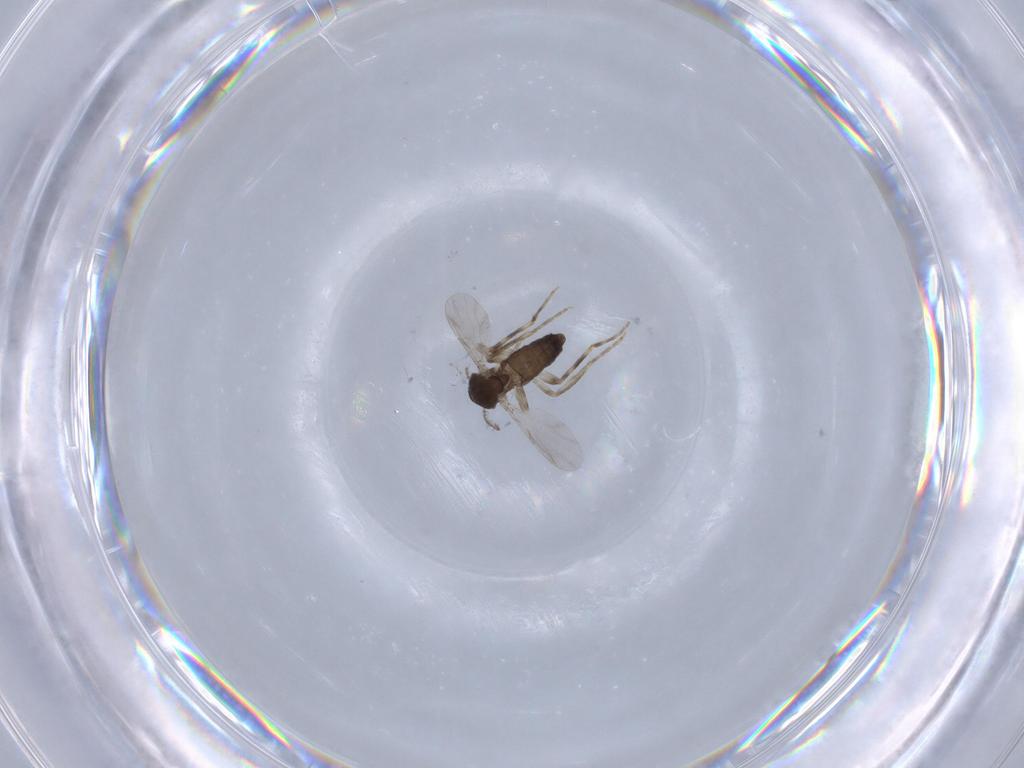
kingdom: Animalia
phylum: Arthropoda
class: Insecta
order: Diptera
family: Ceratopogonidae
